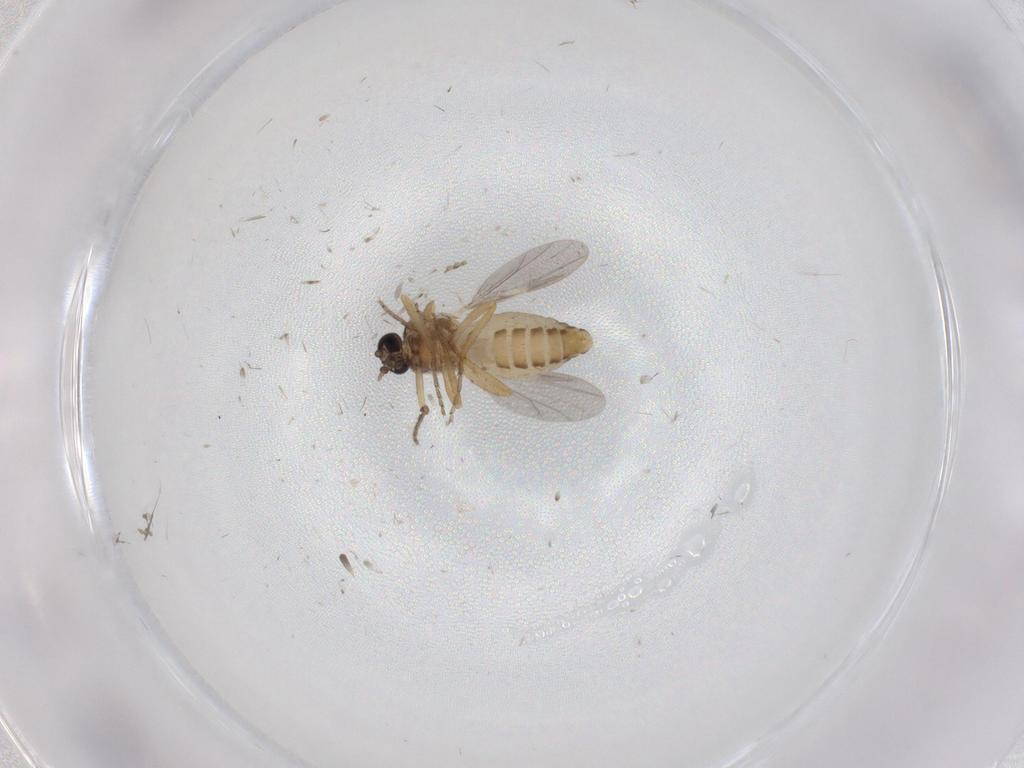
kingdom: Animalia
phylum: Arthropoda
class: Insecta
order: Diptera
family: Ceratopogonidae
